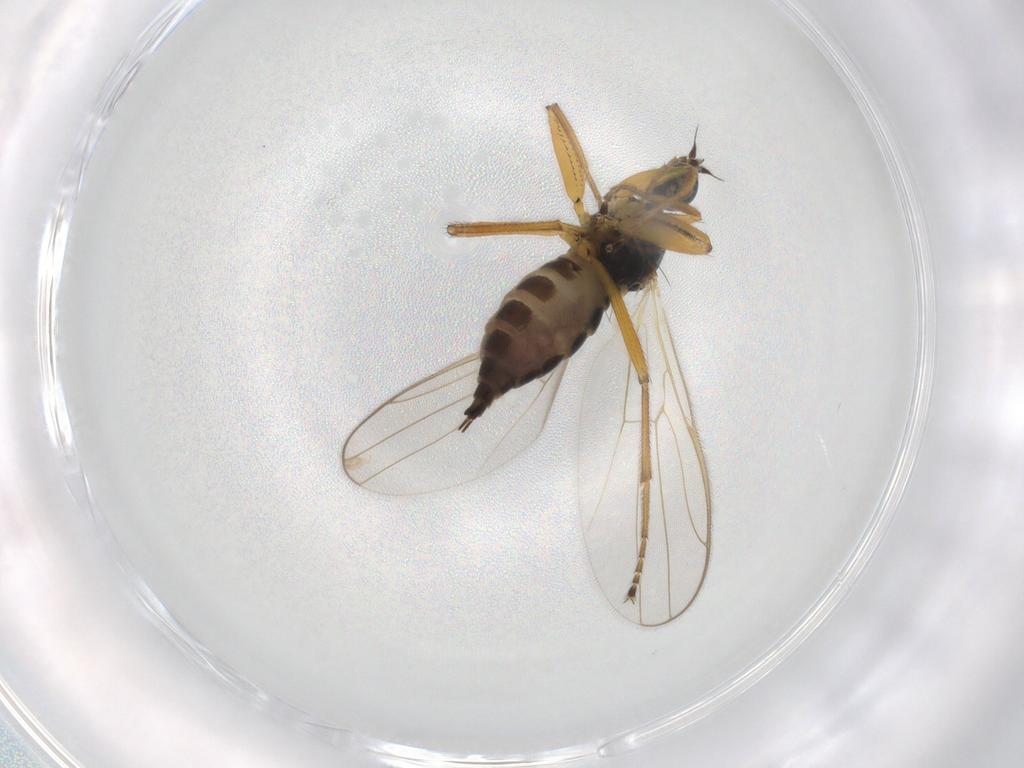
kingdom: Animalia
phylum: Arthropoda
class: Insecta
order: Diptera
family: Hybotidae
